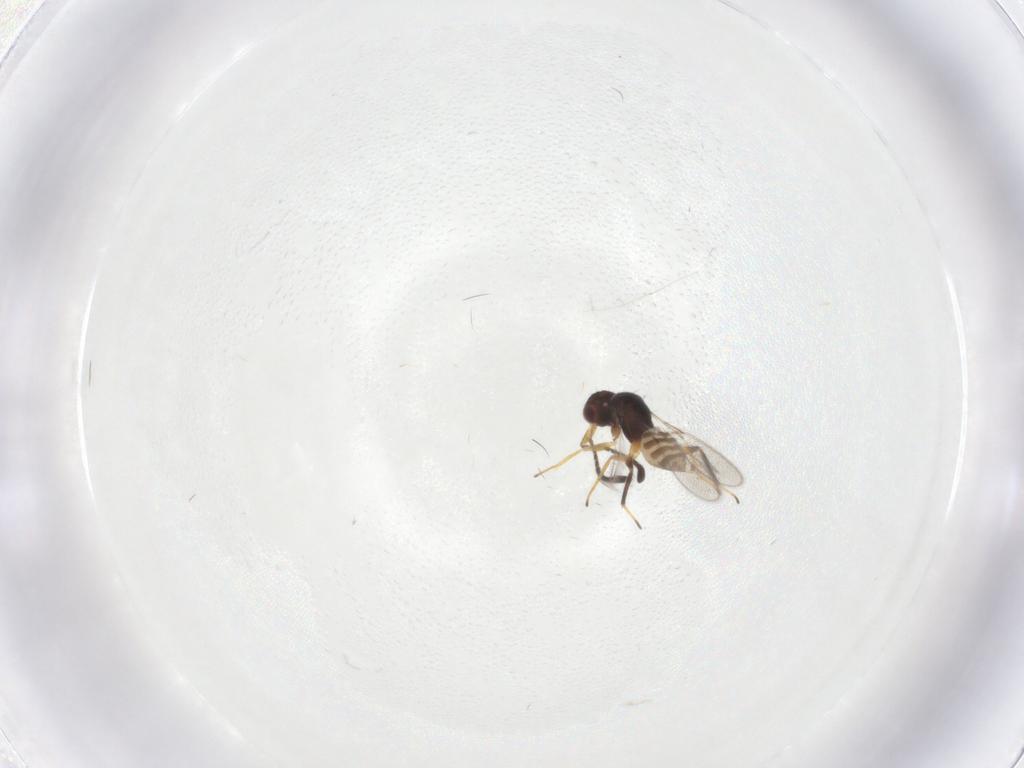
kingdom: Animalia
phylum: Arthropoda
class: Insecta
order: Hymenoptera
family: Mymaridae
